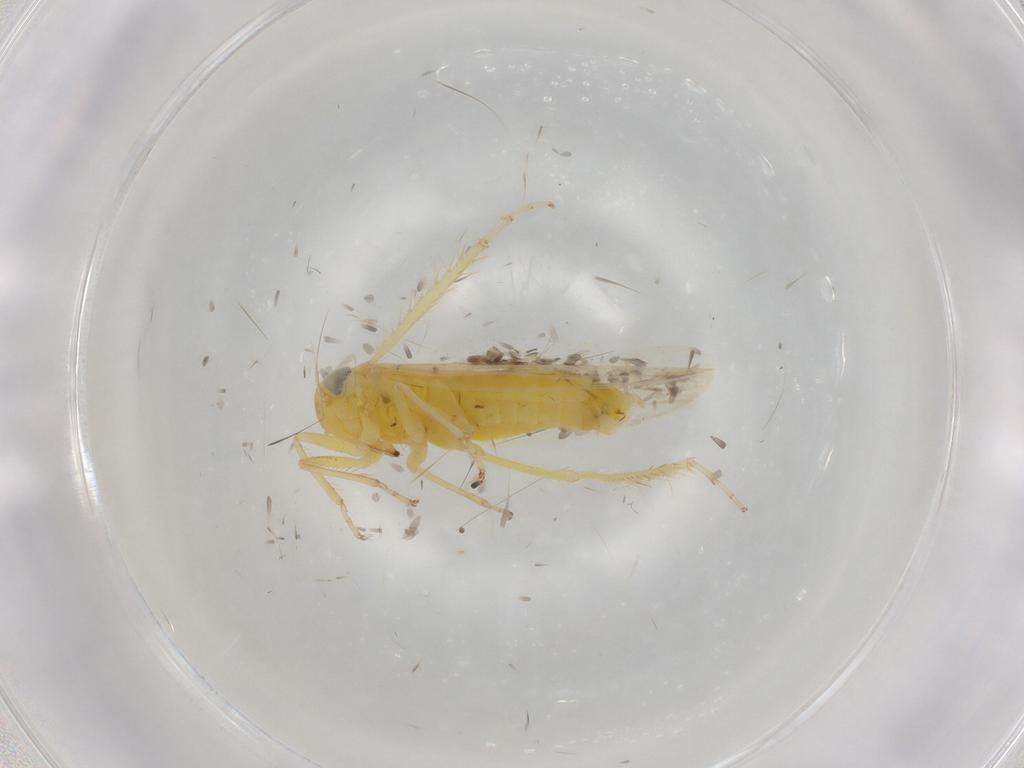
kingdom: Animalia
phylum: Arthropoda
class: Insecta
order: Hemiptera
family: Cicadellidae
